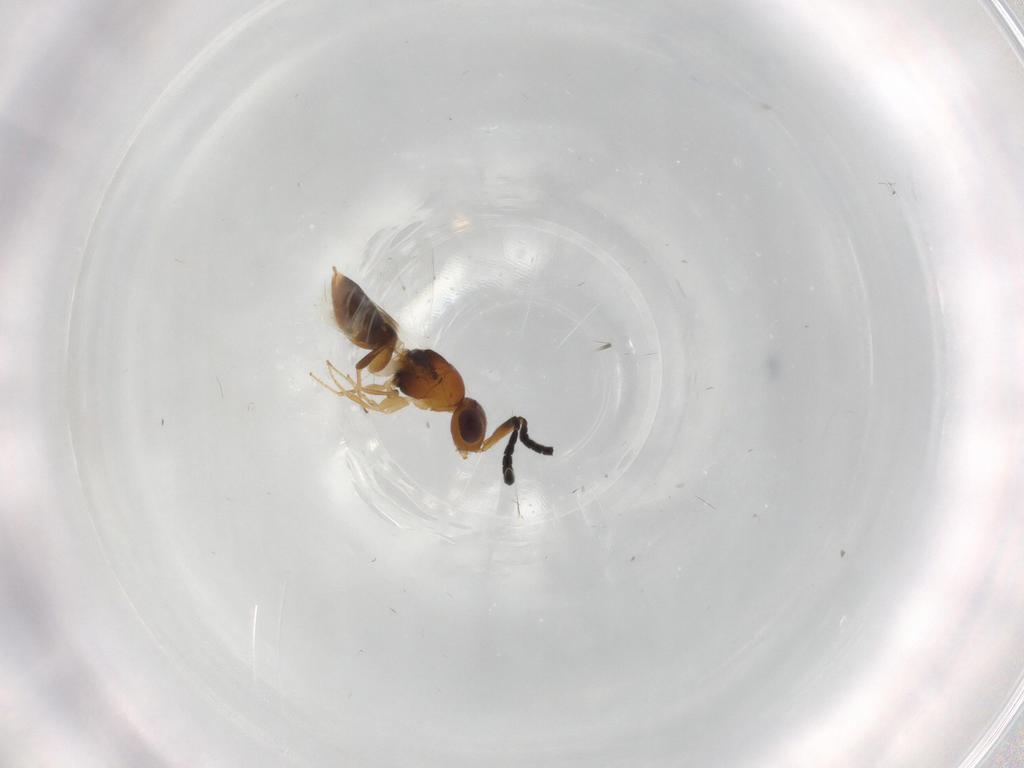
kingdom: Animalia
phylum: Arthropoda
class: Insecta
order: Hymenoptera
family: Megaspilidae
